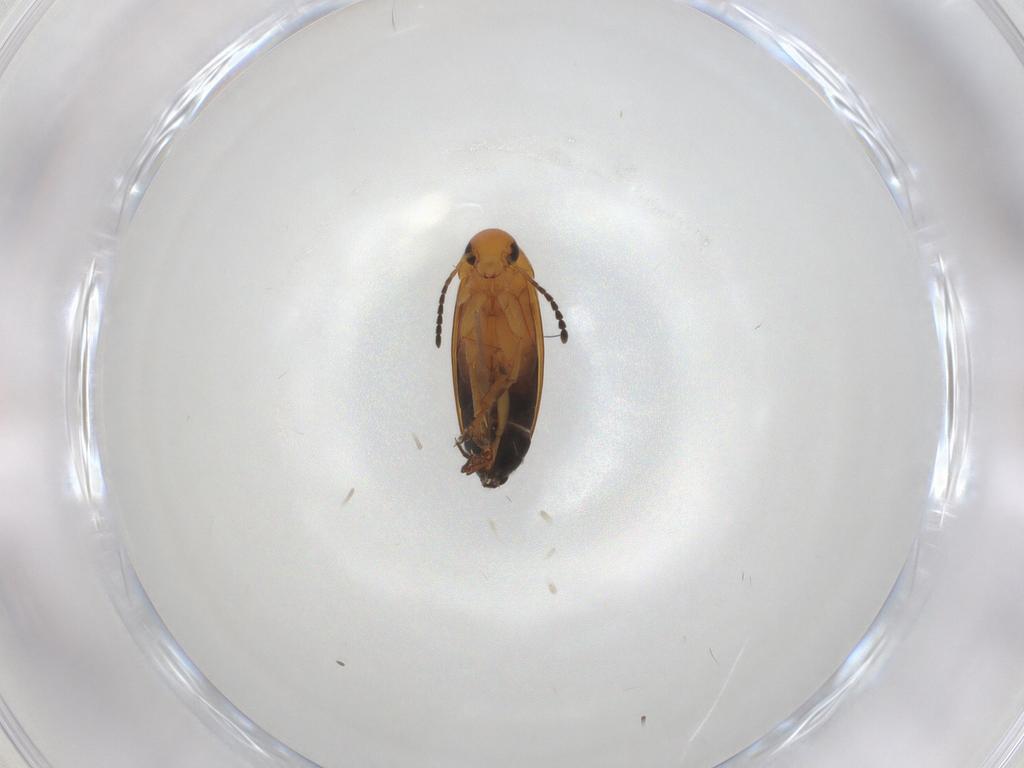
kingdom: Animalia
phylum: Arthropoda
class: Insecta
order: Coleoptera
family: Scraptiidae
